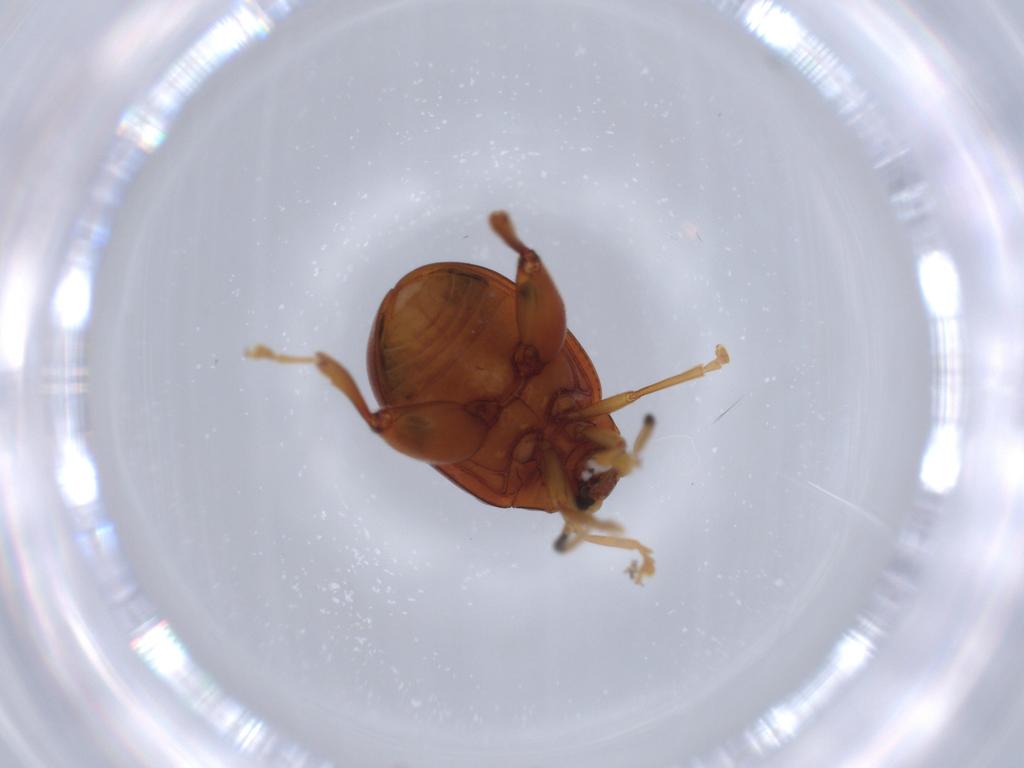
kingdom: Animalia
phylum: Arthropoda
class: Insecta
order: Coleoptera
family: Chrysomelidae
